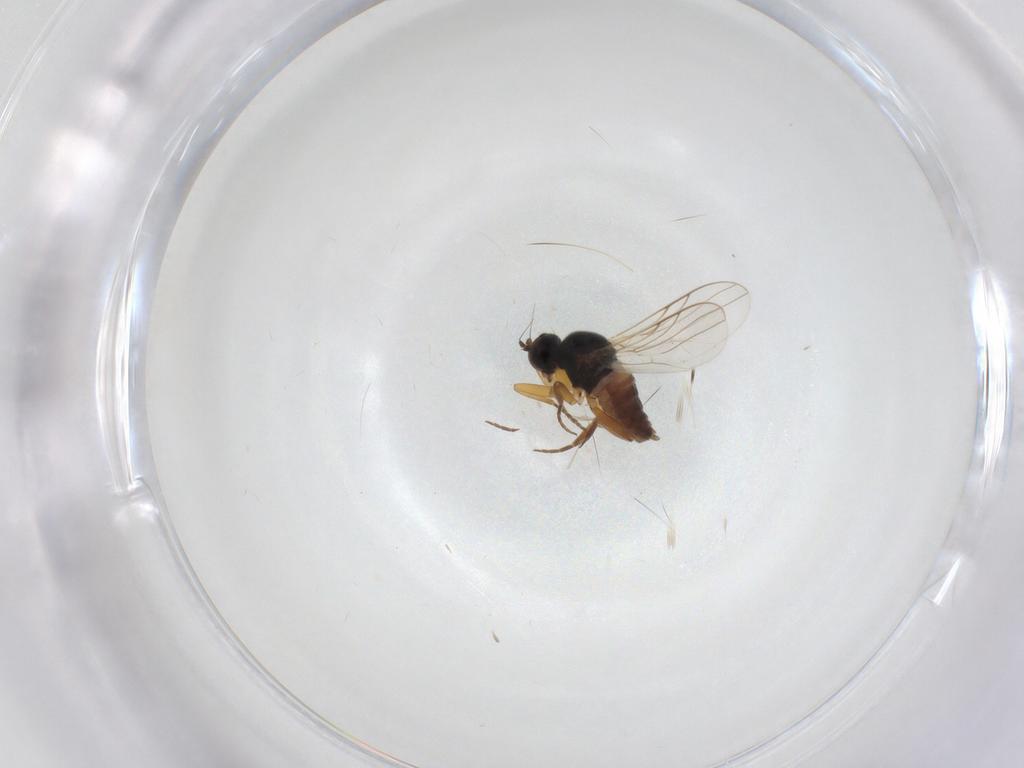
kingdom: Animalia
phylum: Arthropoda
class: Insecta
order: Diptera
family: Hybotidae
